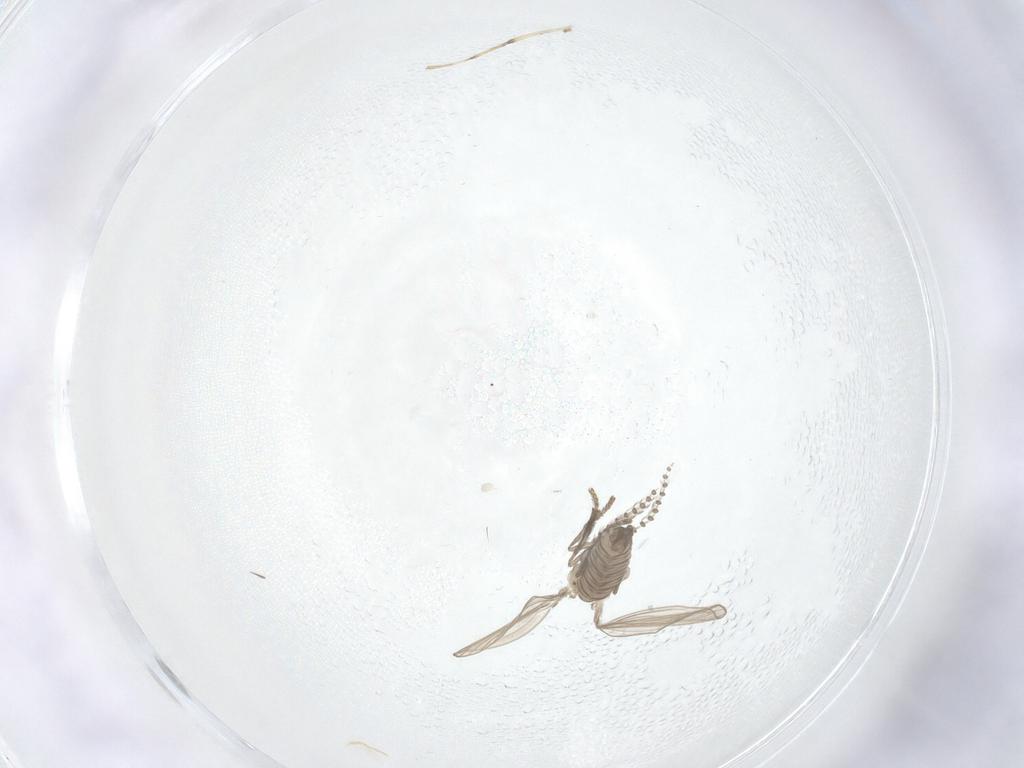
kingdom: Animalia
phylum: Arthropoda
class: Insecta
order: Diptera
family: Psychodidae
